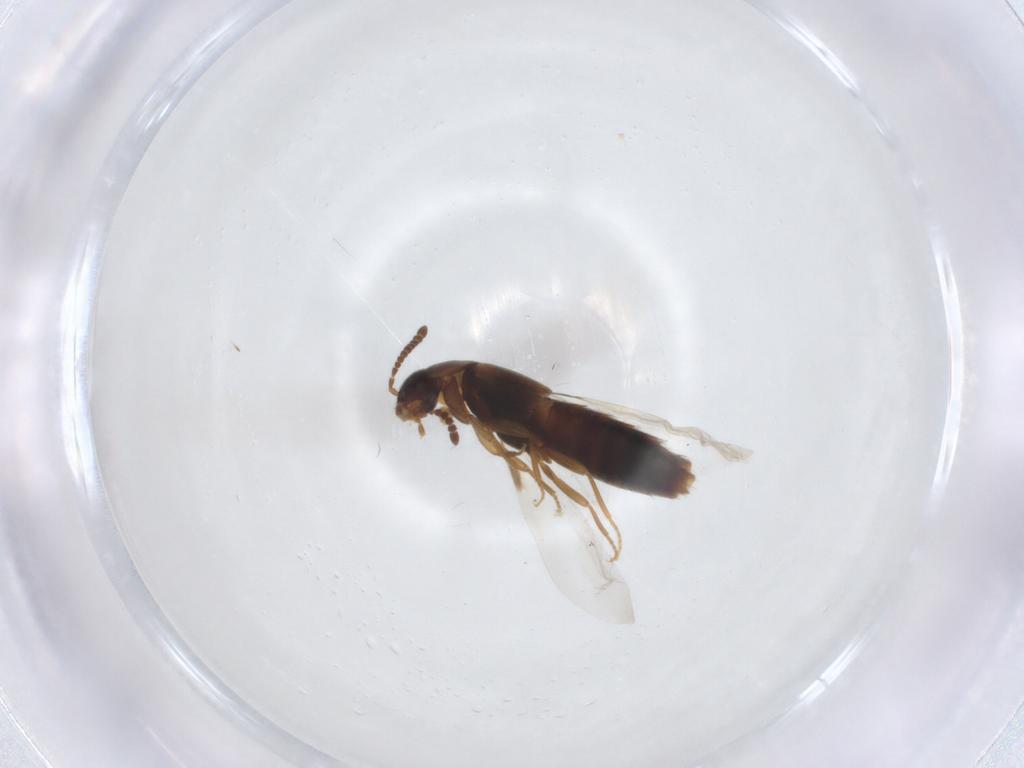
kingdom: Animalia
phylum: Arthropoda
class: Insecta
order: Coleoptera
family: Staphylinidae
